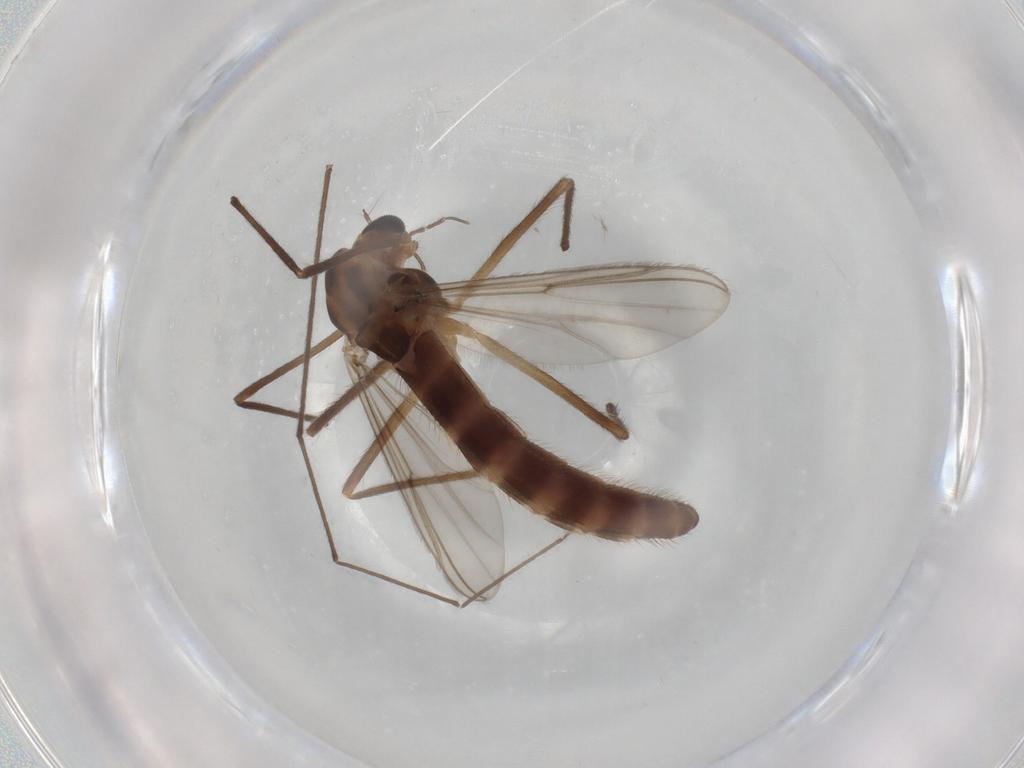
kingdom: Animalia
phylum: Arthropoda
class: Insecta
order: Diptera
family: Chironomidae
